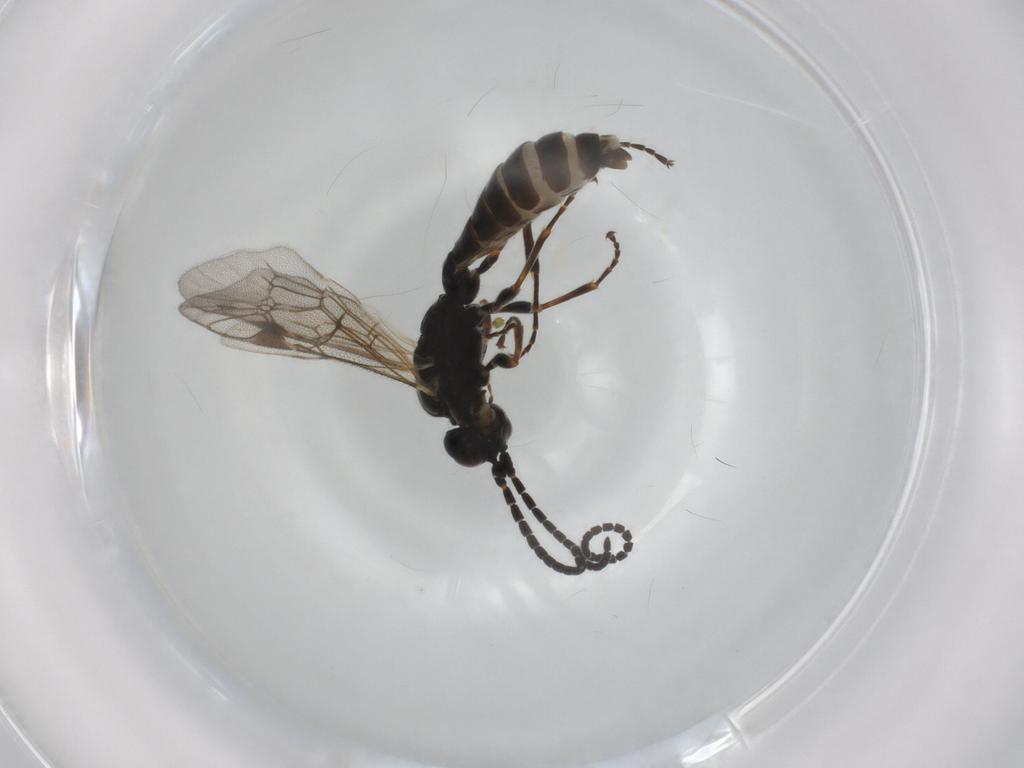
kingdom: Animalia
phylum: Arthropoda
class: Insecta
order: Hymenoptera
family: Ichneumonidae
